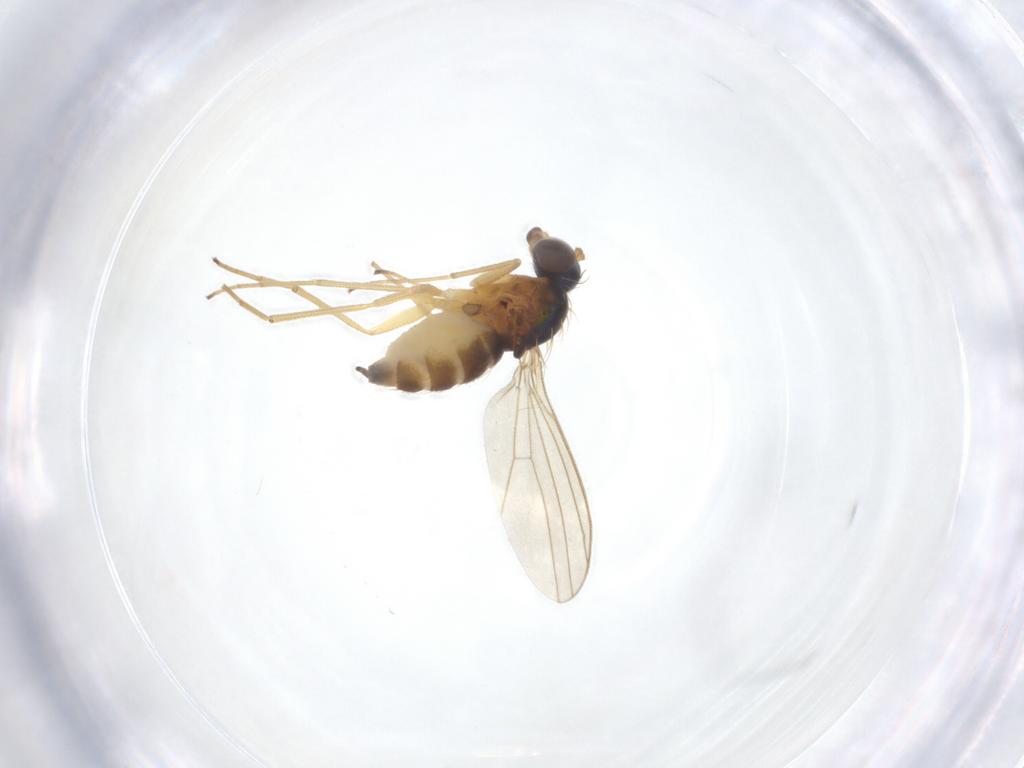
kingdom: Animalia
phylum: Arthropoda
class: Insecta
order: Diptera
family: Dolichopodidae
